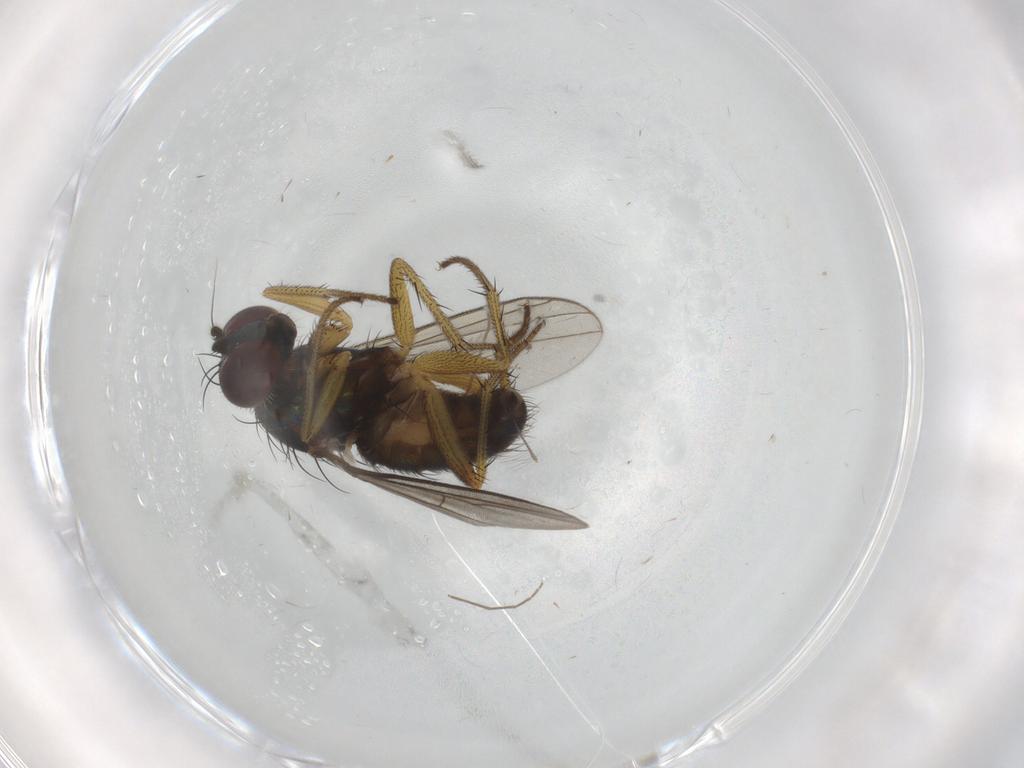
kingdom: Animalia
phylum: Arthropoda
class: Insecta
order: Diptera
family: Dolichopodidae
